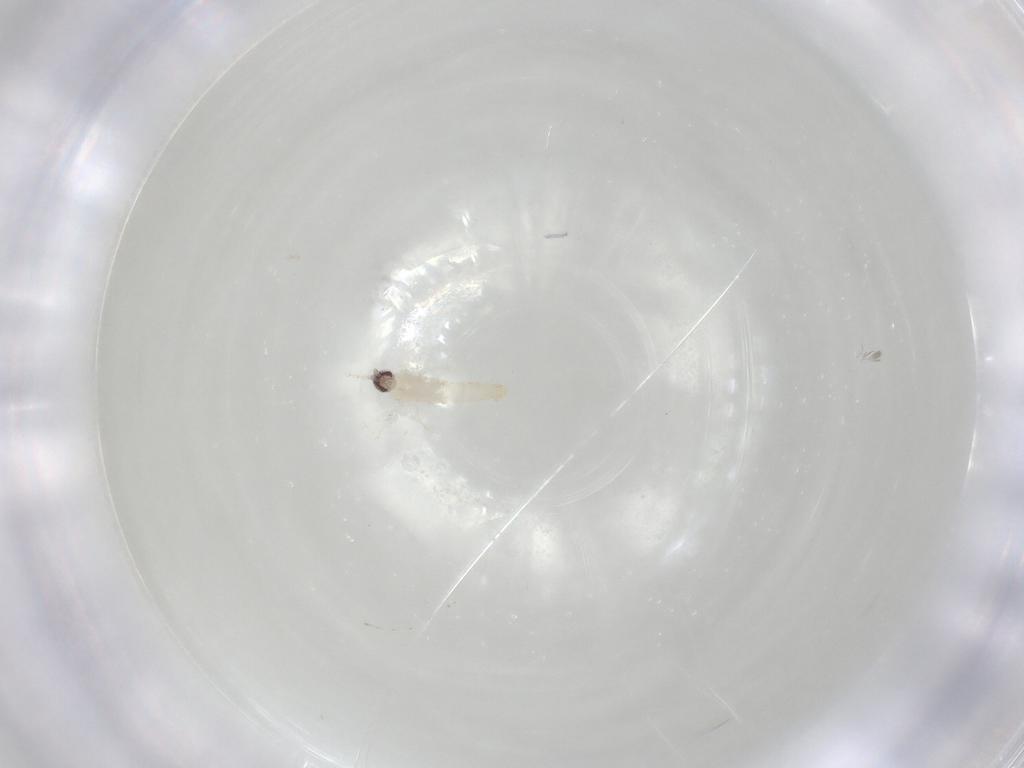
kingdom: Animalia
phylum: Arthropoda
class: Insecta
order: Diptera
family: Cecidomyiidae
